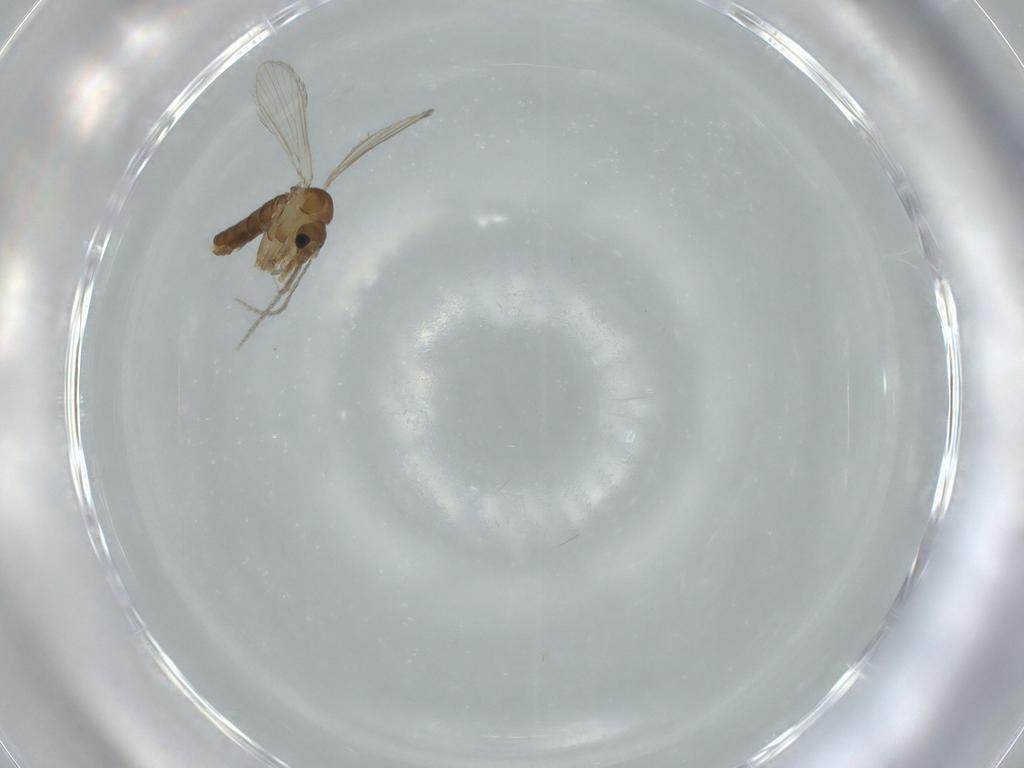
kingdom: Animalia
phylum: Arthropoda
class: Insecta
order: Diptera
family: Psychodidae
